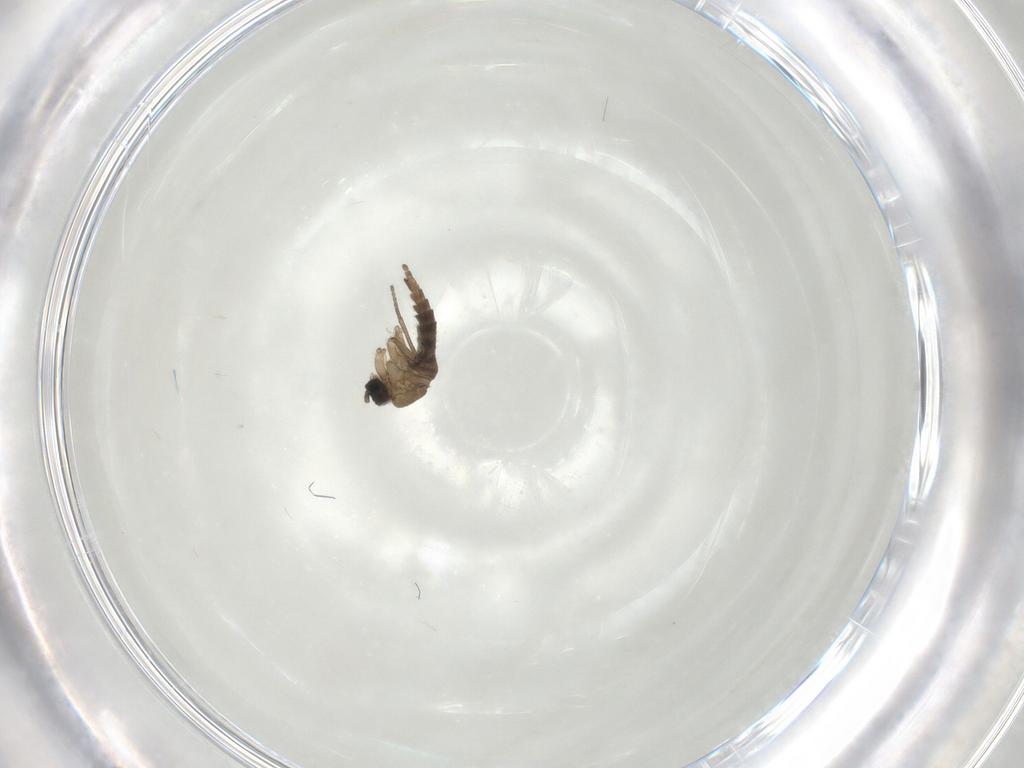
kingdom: Animalia
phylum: Arthropoda
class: Insecta
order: Diptera
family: Sciaridae
